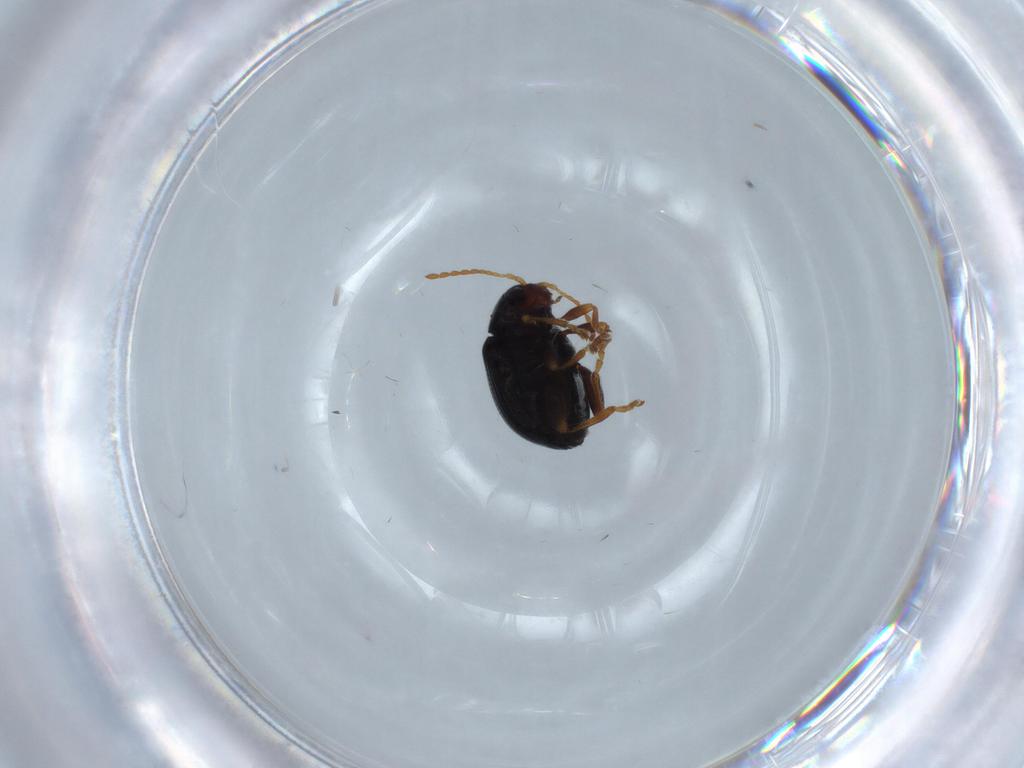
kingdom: Animalia
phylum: Arthropoda
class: Insecta
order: Coleoptera
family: Chrysomelidae
